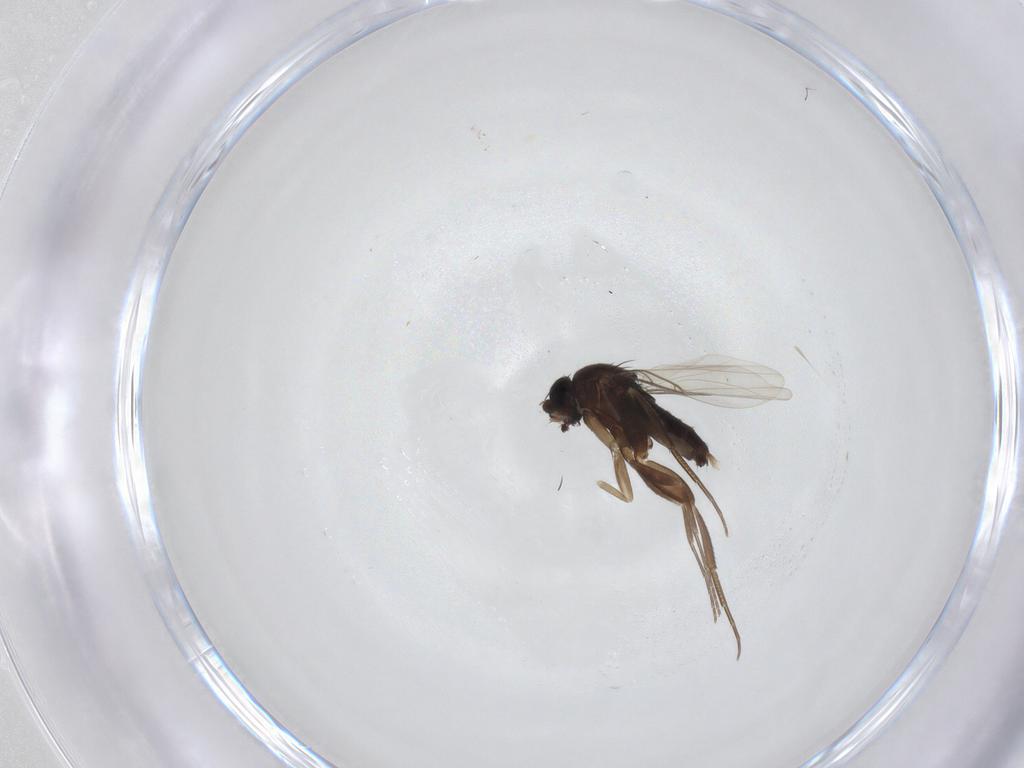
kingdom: Animalia
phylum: Arthropoda
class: Insecta
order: Diptera
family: Phoridae
